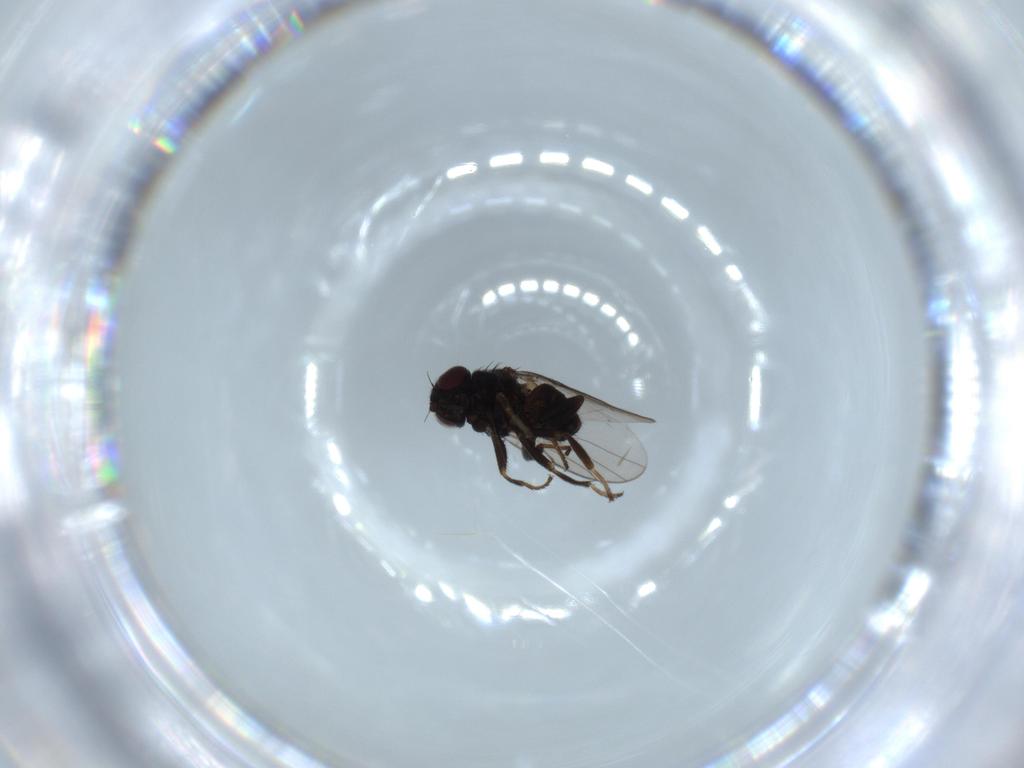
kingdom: Animalia
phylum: Arthropoda
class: Insecta
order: Diptera
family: Chloropidae
